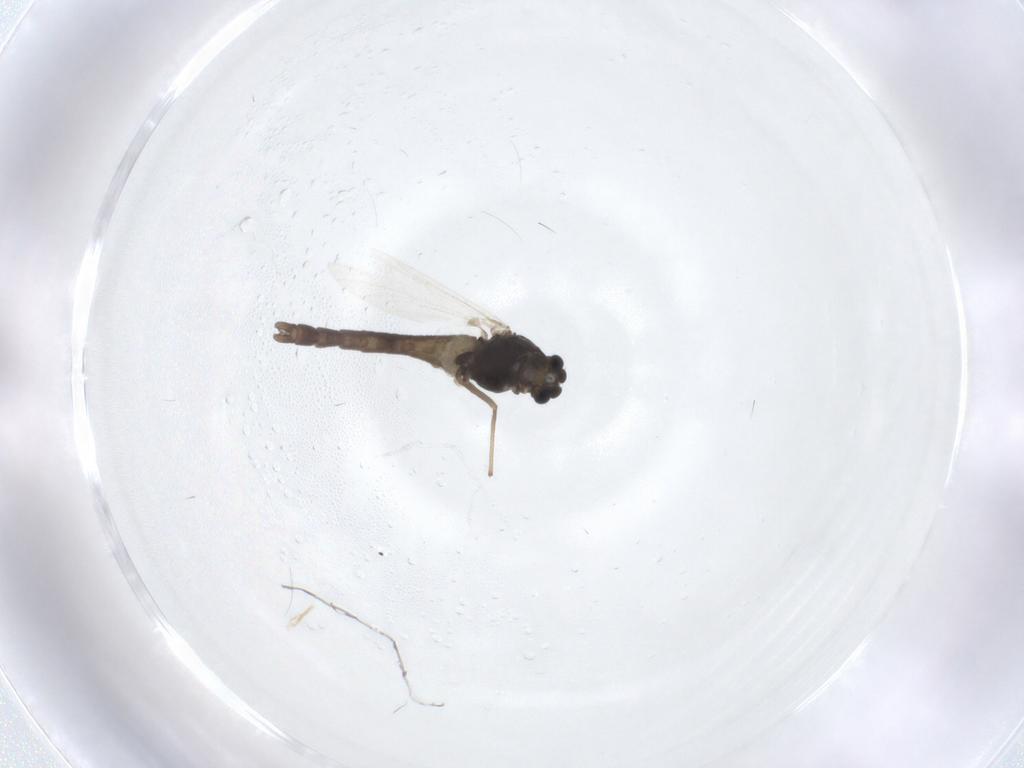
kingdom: Animalia
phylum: Arthropoda
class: Insecta
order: Diptera
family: Chironomidae
